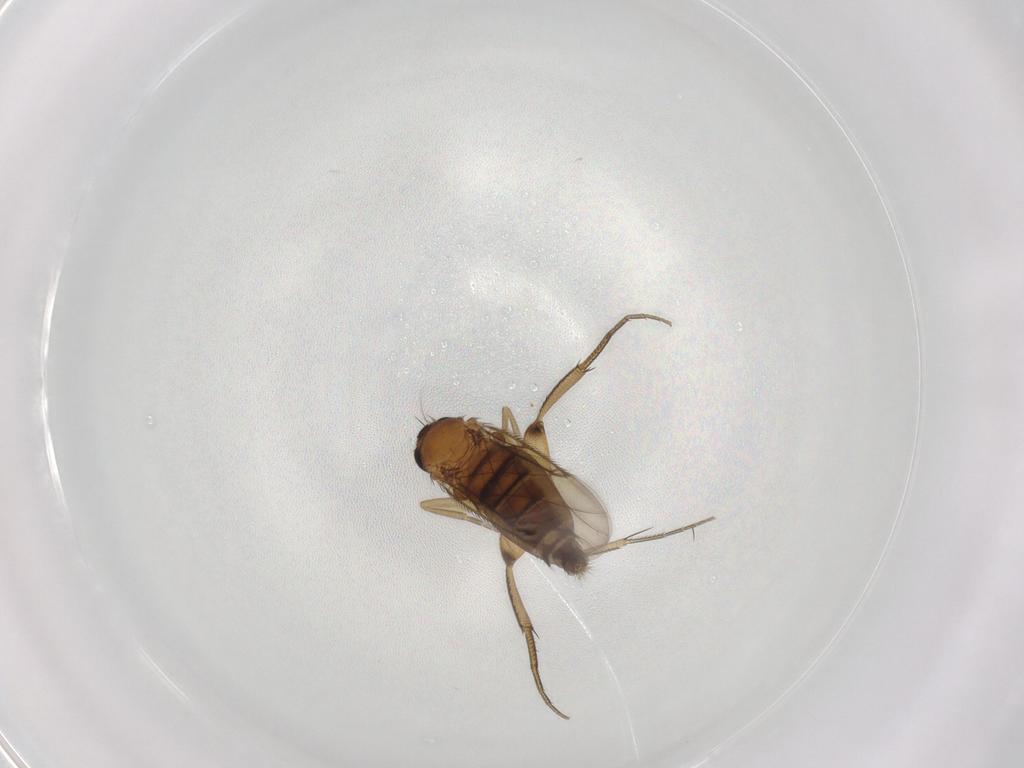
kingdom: Animalia
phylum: Arthropoda
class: Insecta
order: Diptera
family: Phoridae
